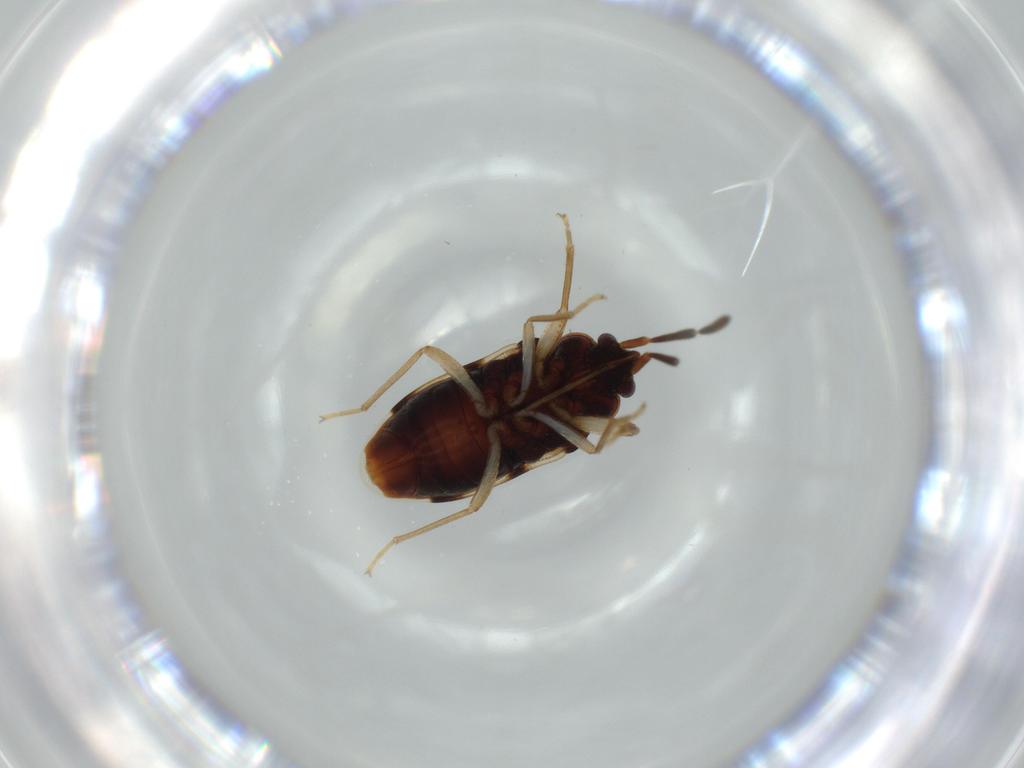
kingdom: Animalia
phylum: Arthropoda
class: Insecta
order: Hemiptera
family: Rhyparochromidae
